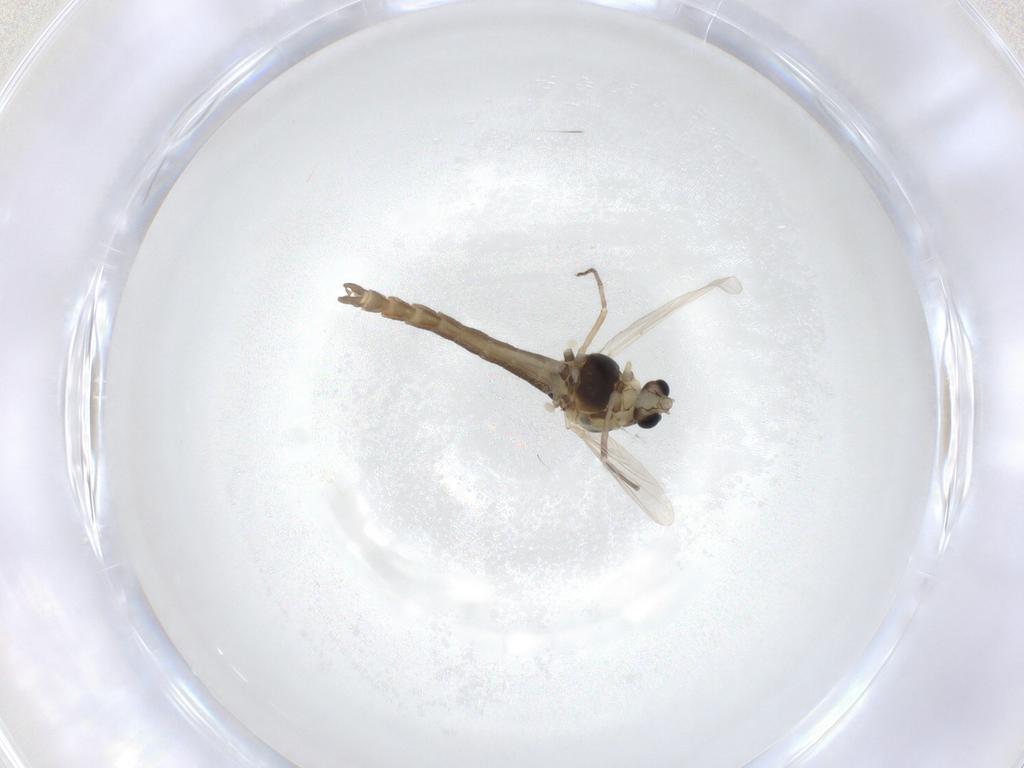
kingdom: Animalia
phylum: Arthropoda
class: Insecta
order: Diptera
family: Chironomidae
